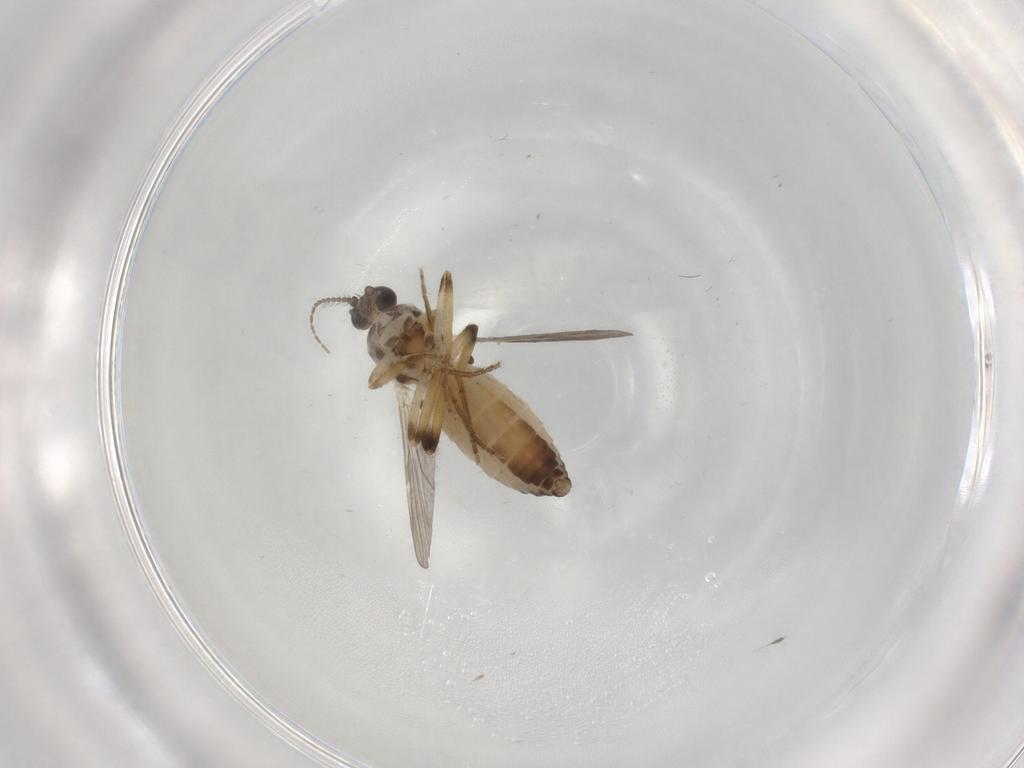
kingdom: Animalia
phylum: Arthropoda
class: Insecta
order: Diptera
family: Ceratopogonidae
